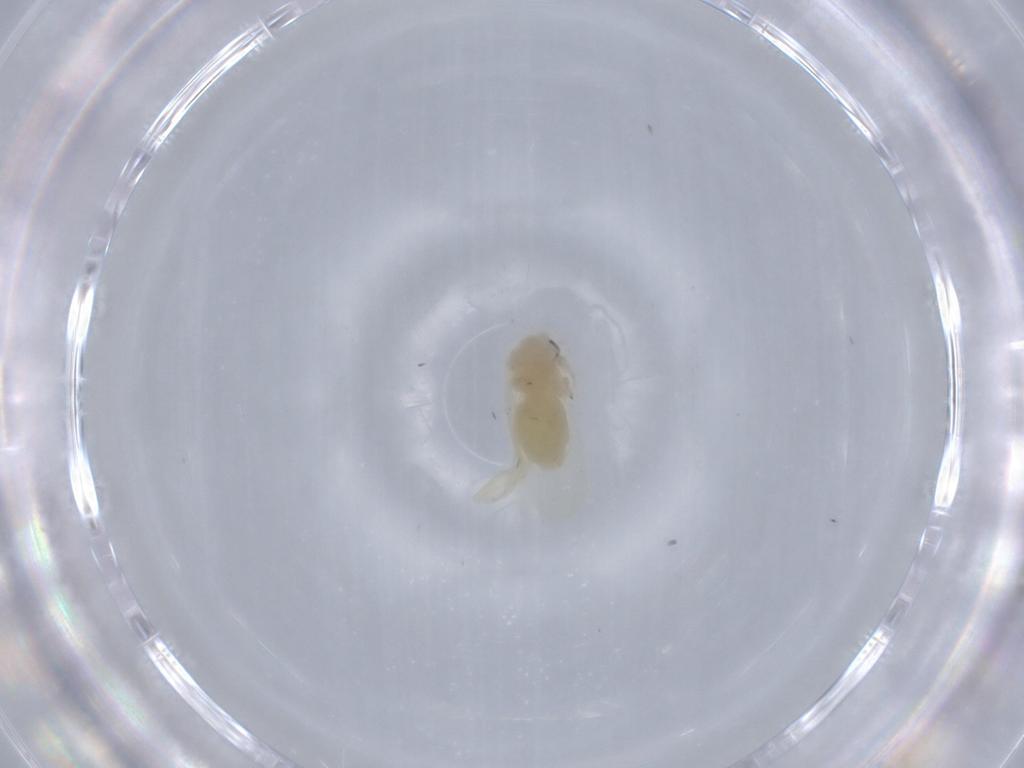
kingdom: Animalia
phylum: Arthropoda
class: Insecta
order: Hemiptera
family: Aleyrodidae
